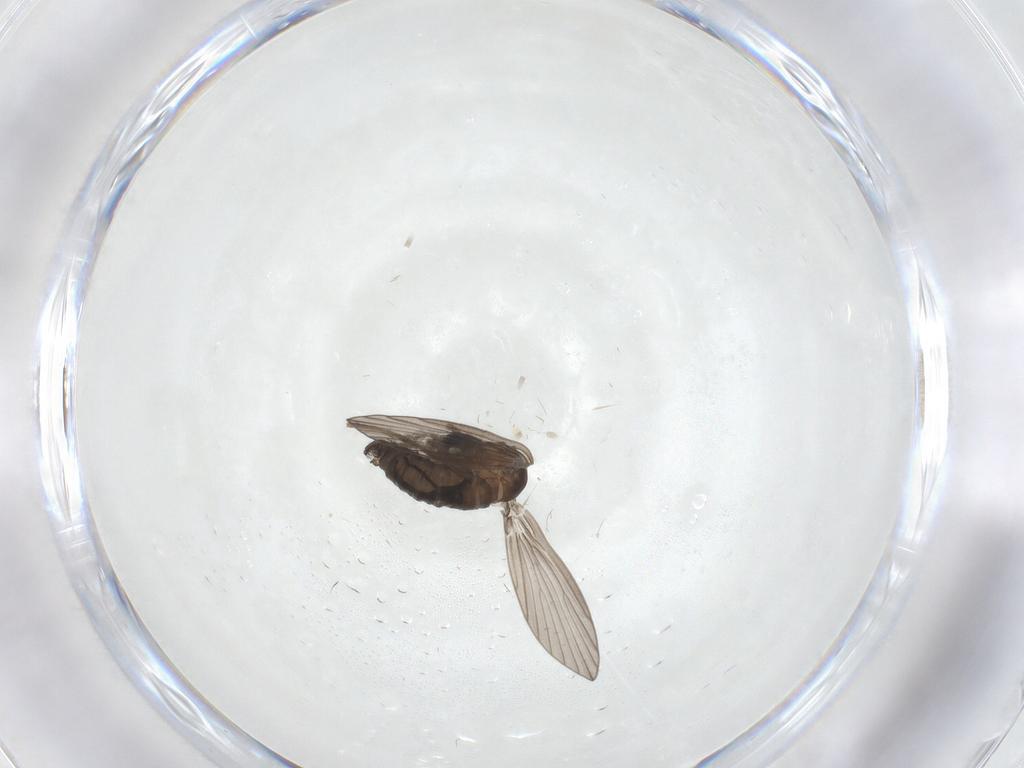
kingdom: Animalia
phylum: Arthropoda
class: Insecta
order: Diptera
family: Psychodidae
